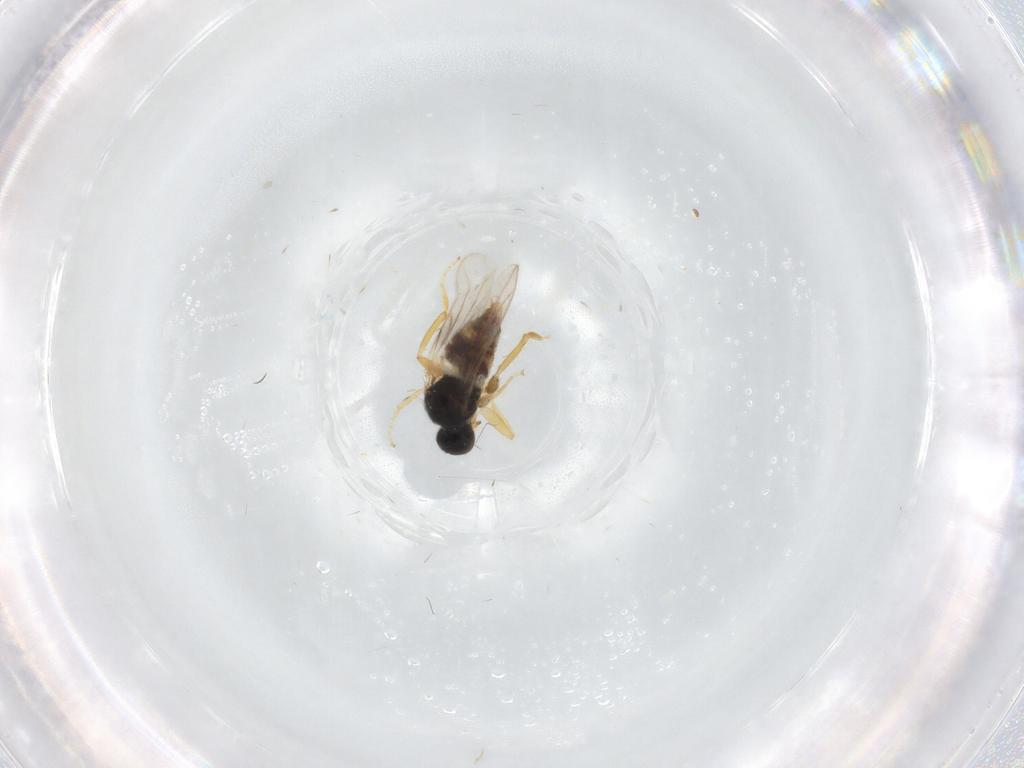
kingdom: Animalia
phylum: Arthropoda
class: Insecta
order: Diptera
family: Hybotidae
